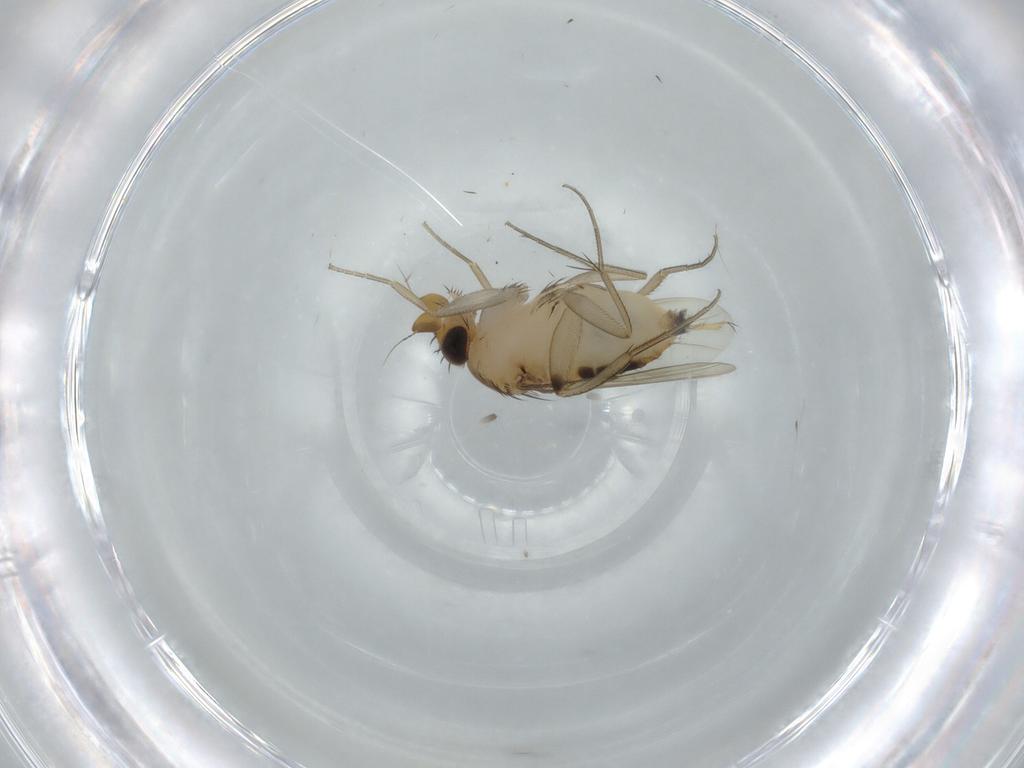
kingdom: Animalia
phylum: Arthropoda
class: Insecta
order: Diptera
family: Phoridae
